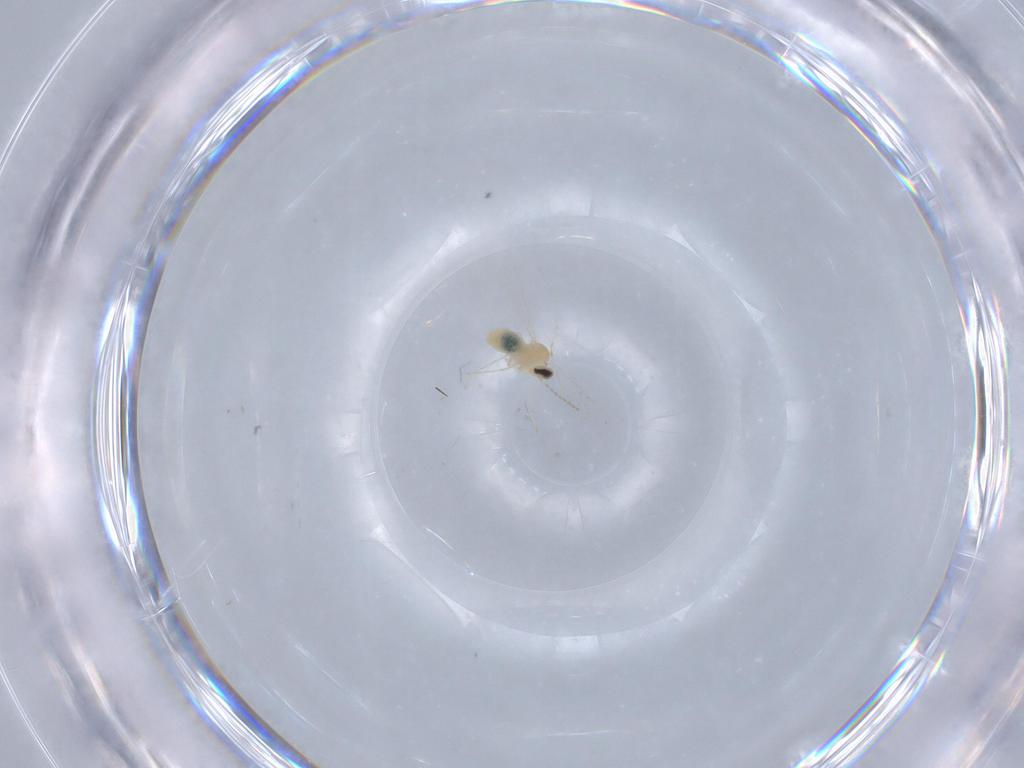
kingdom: Animalia
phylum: Arthropoda
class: Insecta
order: Diptera
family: Cecidomyiidae
